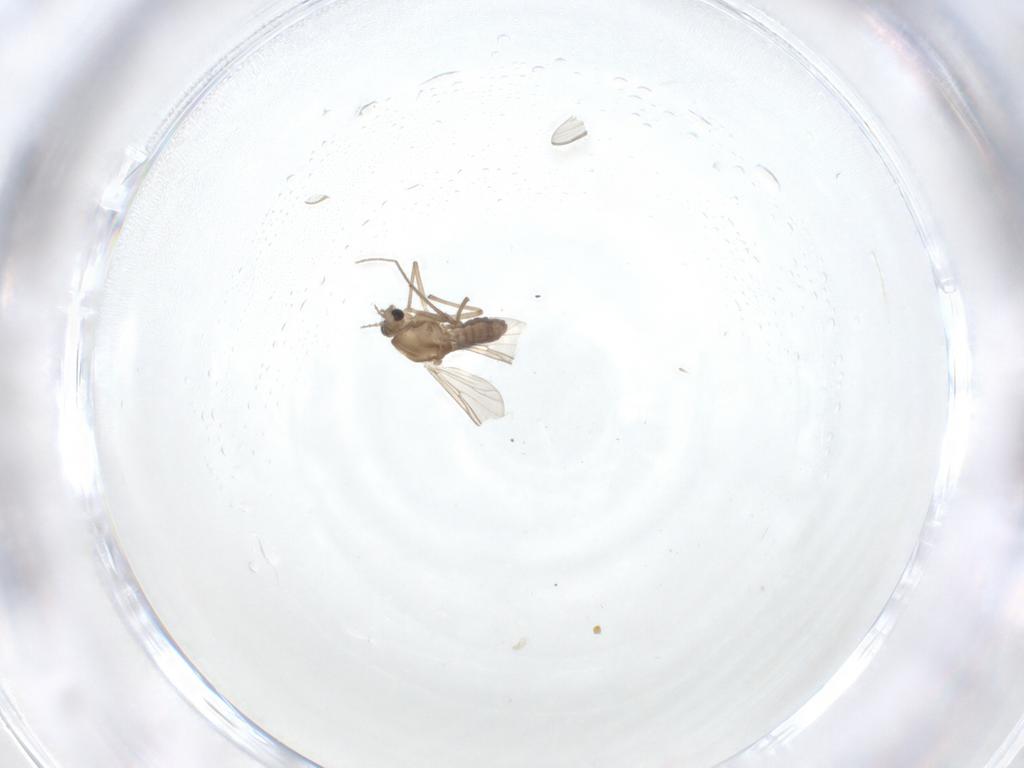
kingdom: Animalia
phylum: Arthropoda
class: Insecta
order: Diptera
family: Chironomidae
